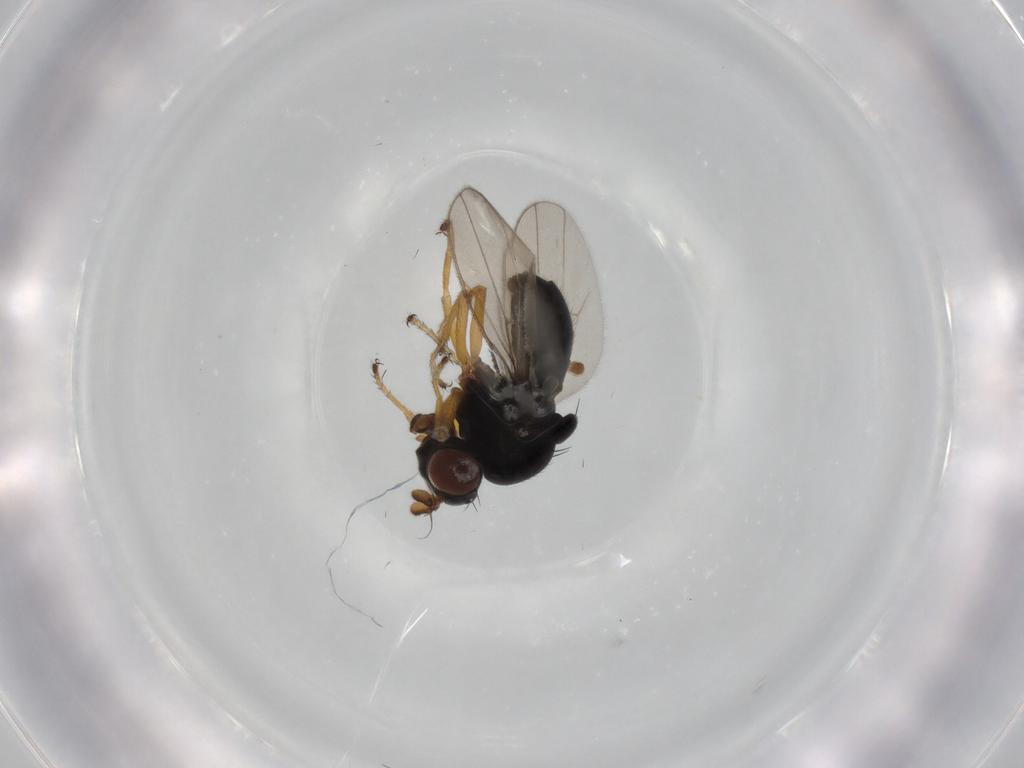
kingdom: Animalia
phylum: Arthropoda
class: Insecta
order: Diptera
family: Ephydridae
